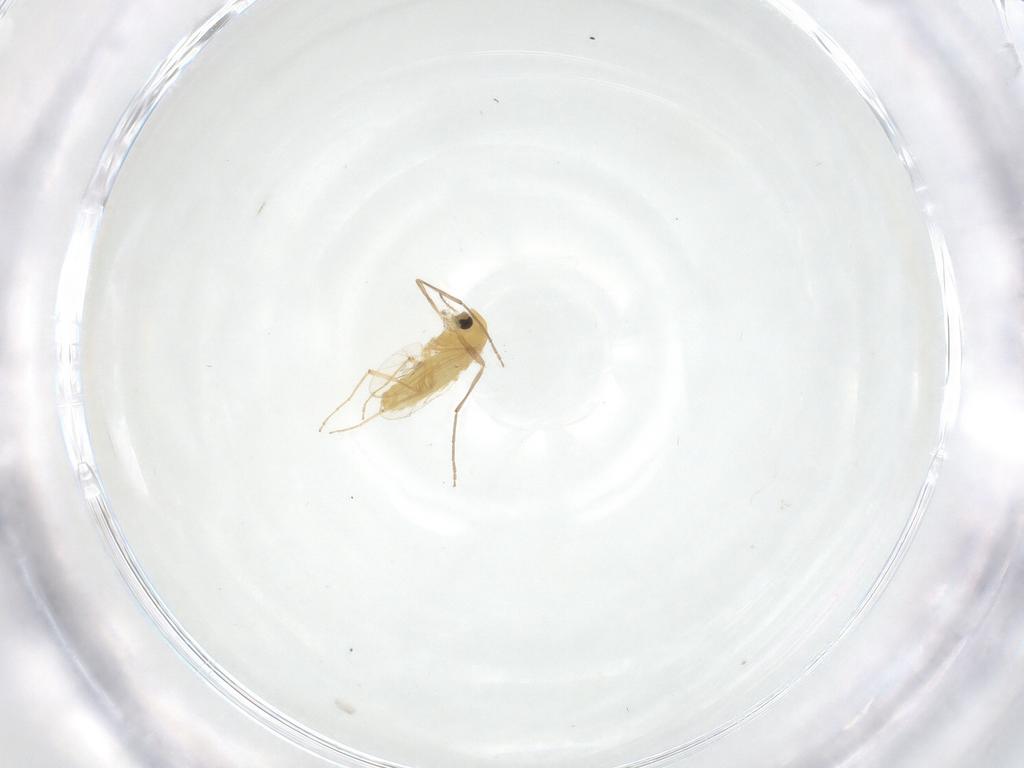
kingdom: Animalia
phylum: Arthropoda
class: Insecta
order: Diptera
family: Chironomidae
